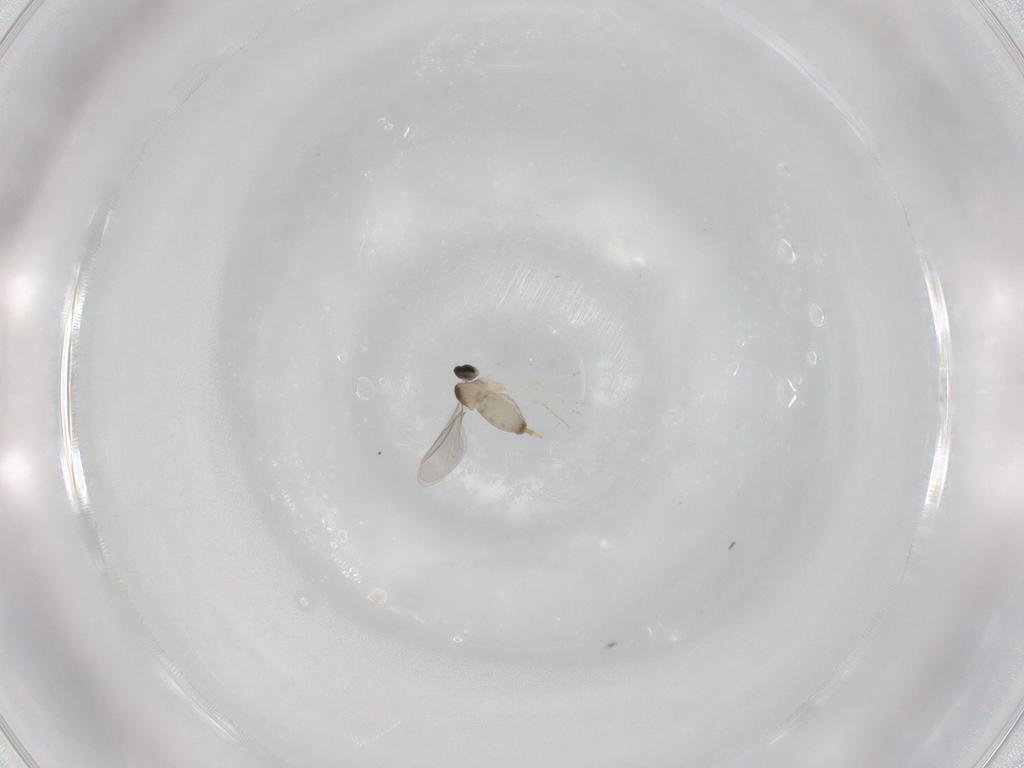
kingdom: Animalia
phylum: Arthropoda
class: Insecta
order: Diptera
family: Cecidomyiidae
